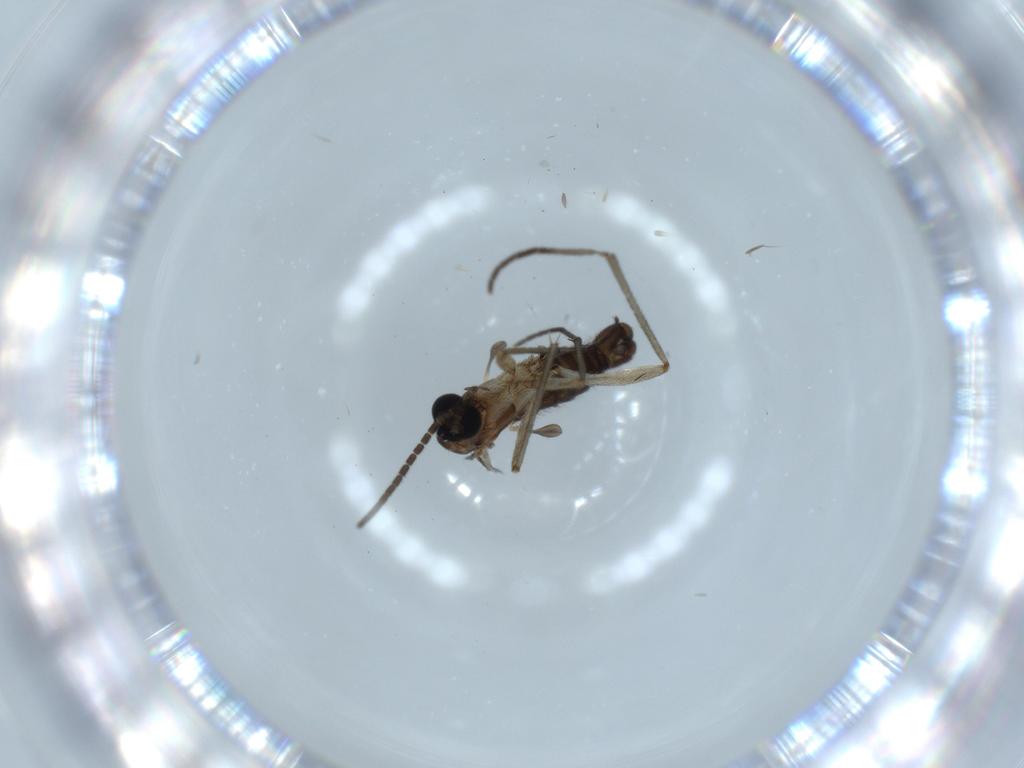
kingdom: Animalia
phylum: Arthropoda
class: Insecta
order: Diptera
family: Sciaridae
